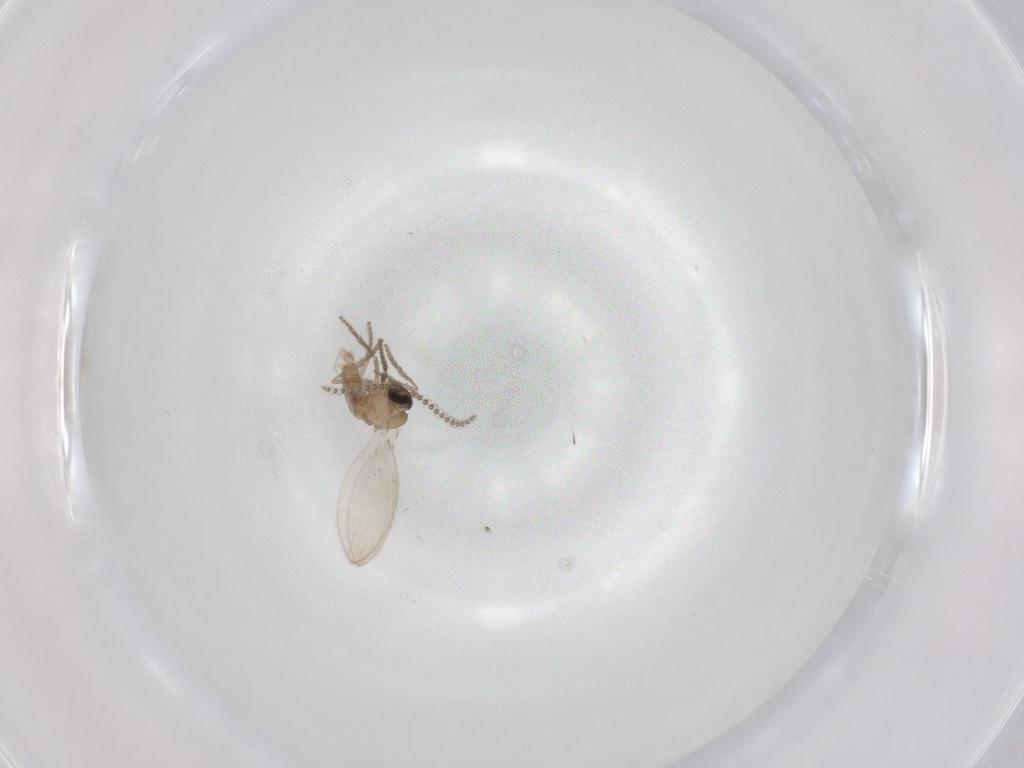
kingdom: Animalia
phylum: Arthropoda
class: Insecta
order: Diptera
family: Psychodidae
